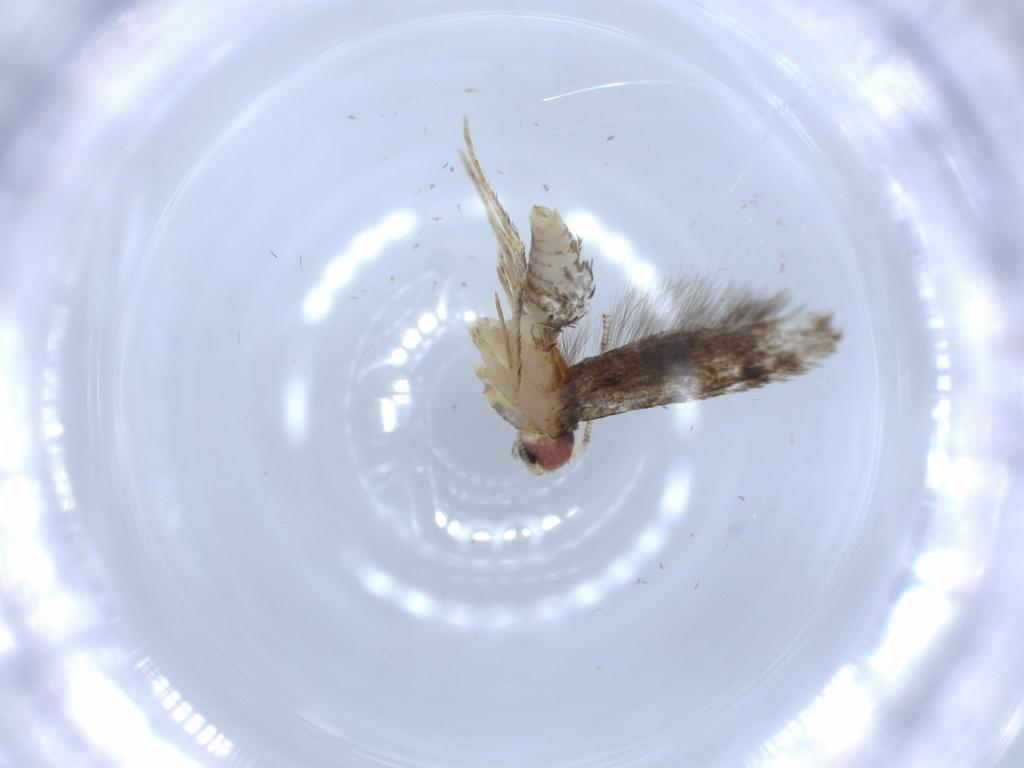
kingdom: Animalia
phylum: Arthropoda
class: Insecta
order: Lepidoptera
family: Tineidae
